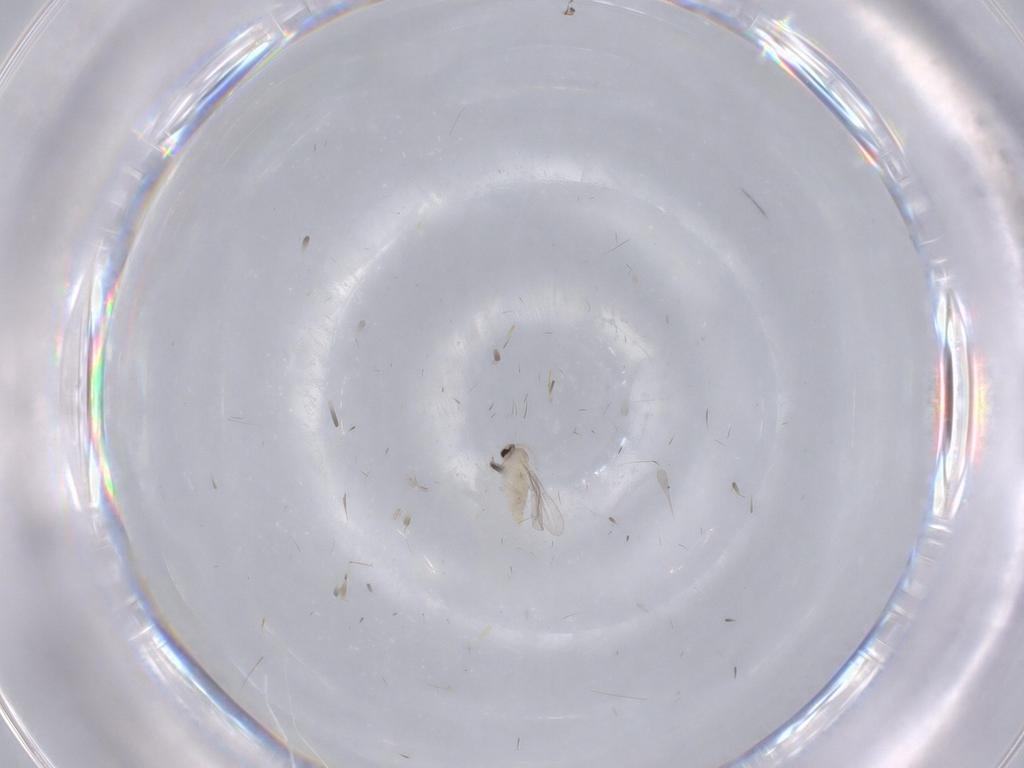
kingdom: Animalia
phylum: Arthropoda
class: Insecta
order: Diptera
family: Cecidomyiidae
